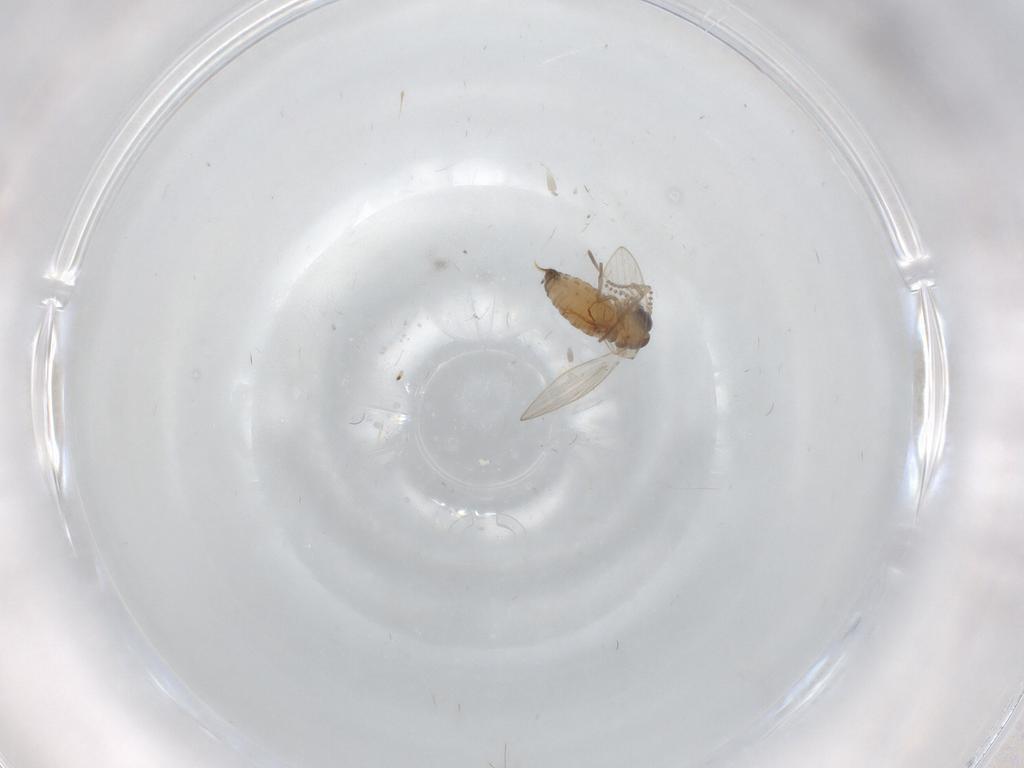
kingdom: Animalia
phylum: Arthropoda
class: Insecta
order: Diptera
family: Psychodidae
